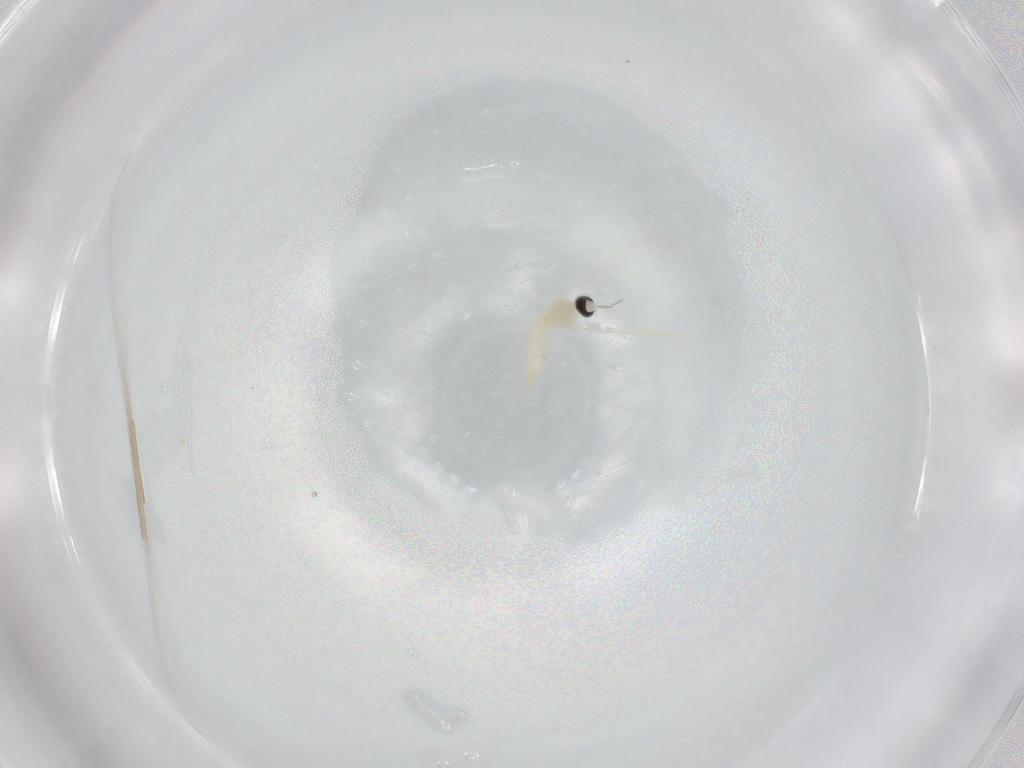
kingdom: Animalia
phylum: Arthropoda
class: Insecta
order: Diptera
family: Cecidomyiidae
